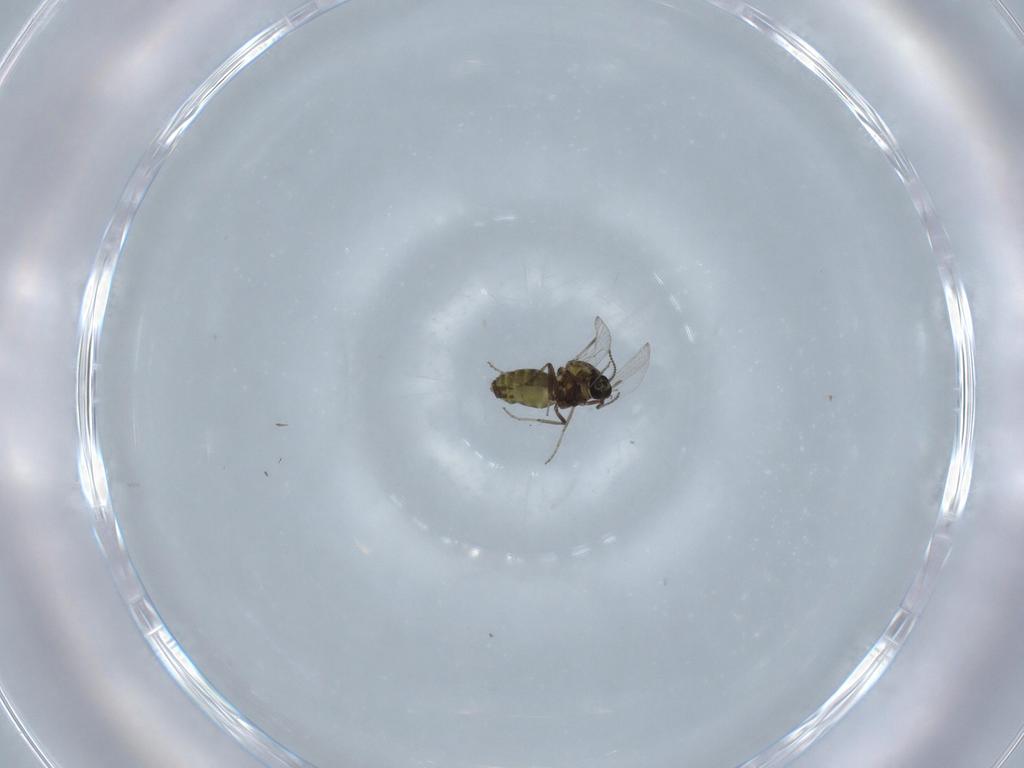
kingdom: Animalia
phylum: Arthropoda
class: Insecta
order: Diptera
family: Ceratopogonidae
